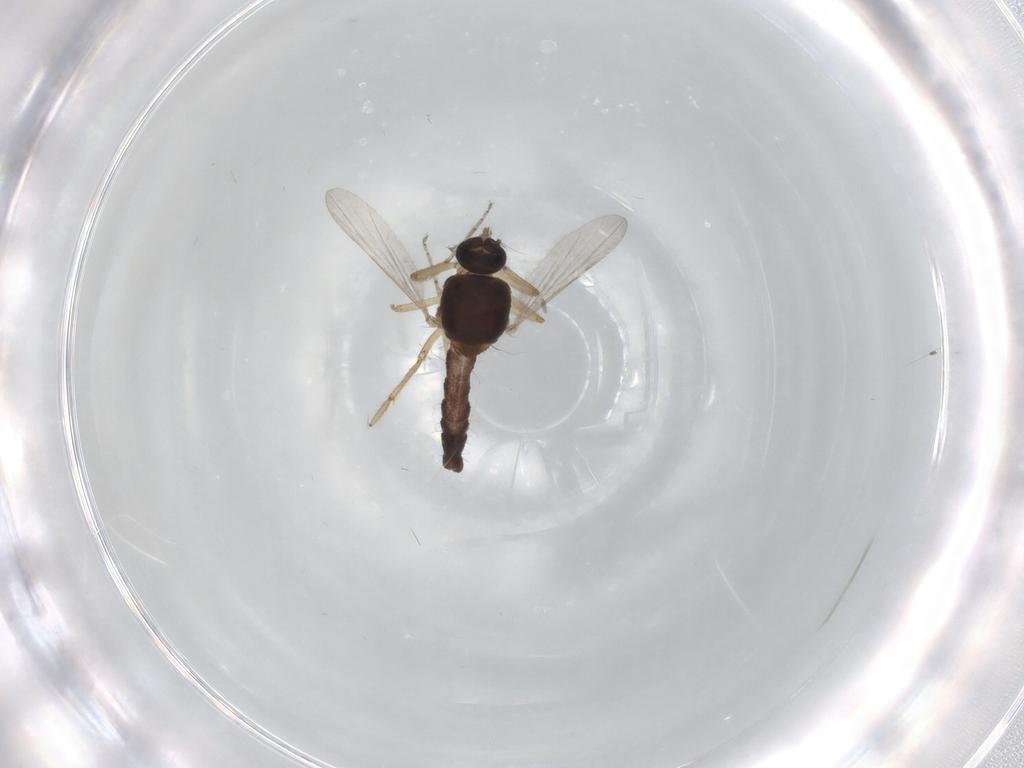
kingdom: Animalia
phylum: Arthropoda
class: Insecta
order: Diptera
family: Ceratopogonidae
